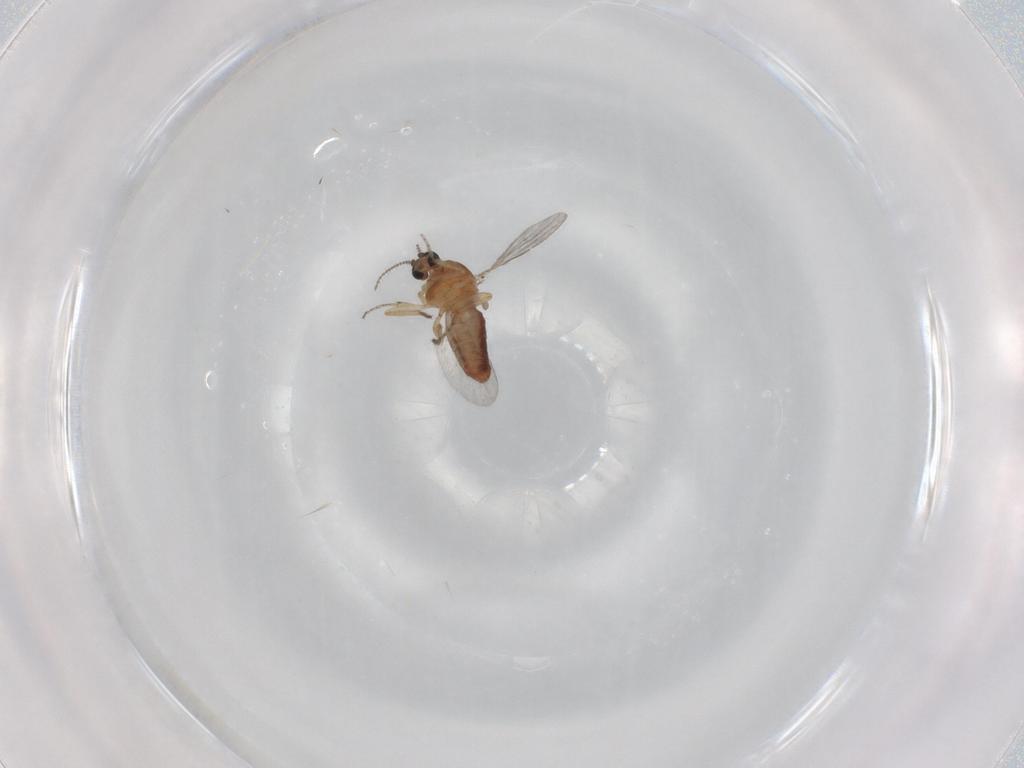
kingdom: Animalia
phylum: Arthropoda
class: Insecta
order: Diptera
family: Ceratopogonidae
